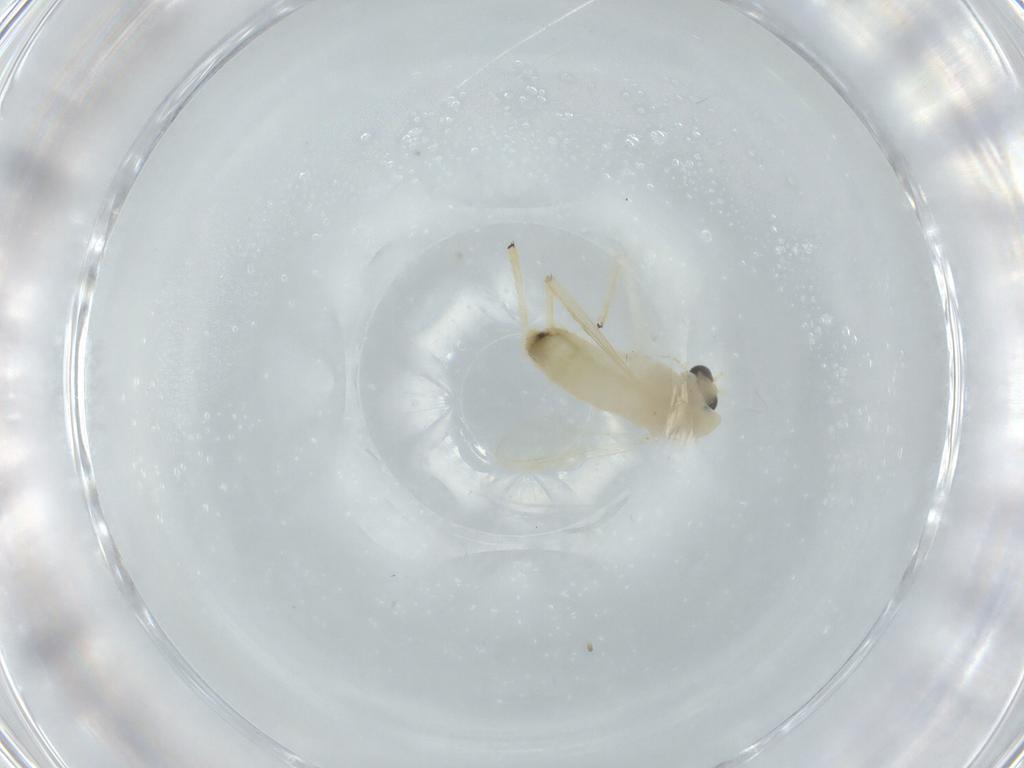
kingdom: Animalia
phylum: Arthropoda
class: Insecta
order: Diptera
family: Chironomidae
